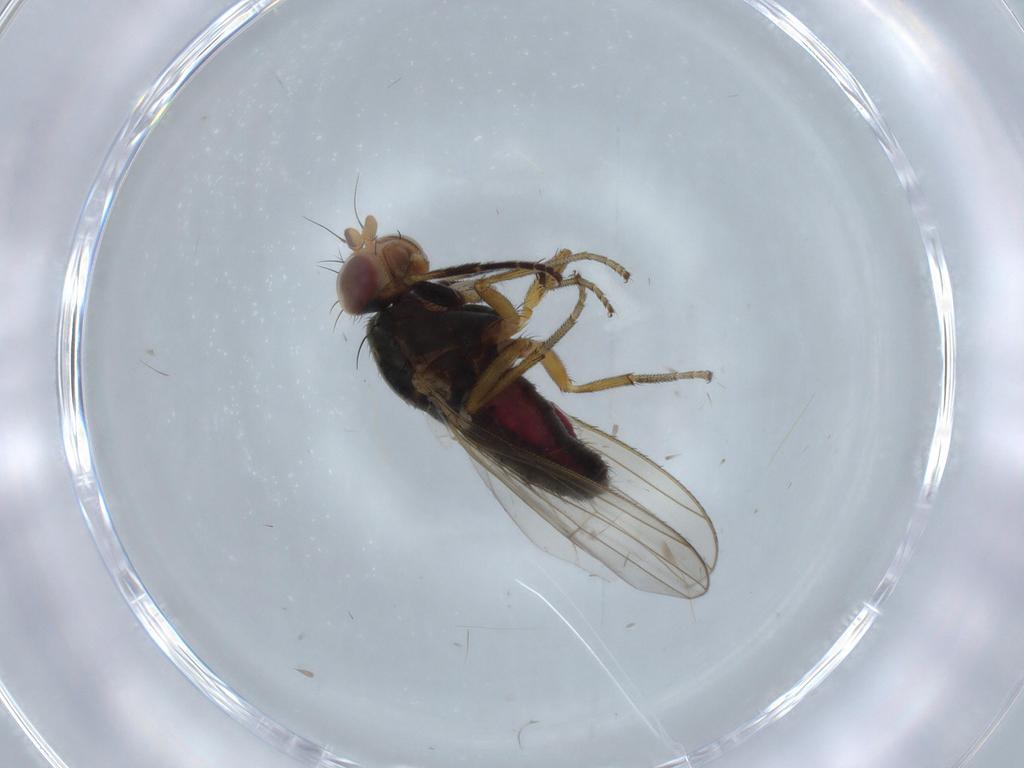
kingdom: Animalia
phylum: Arthropoda
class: Insecta
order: Diptera
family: Heleomyzidae
